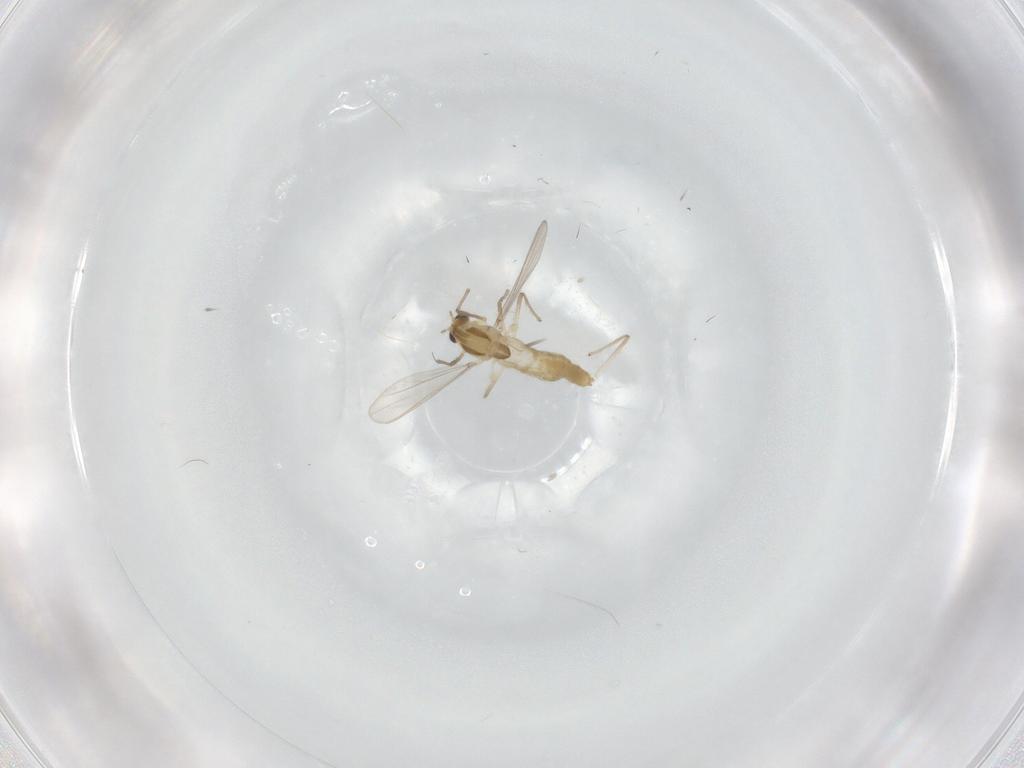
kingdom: Animalia
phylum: Arthropoda
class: Insecta
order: Diptera
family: Chironomidae
